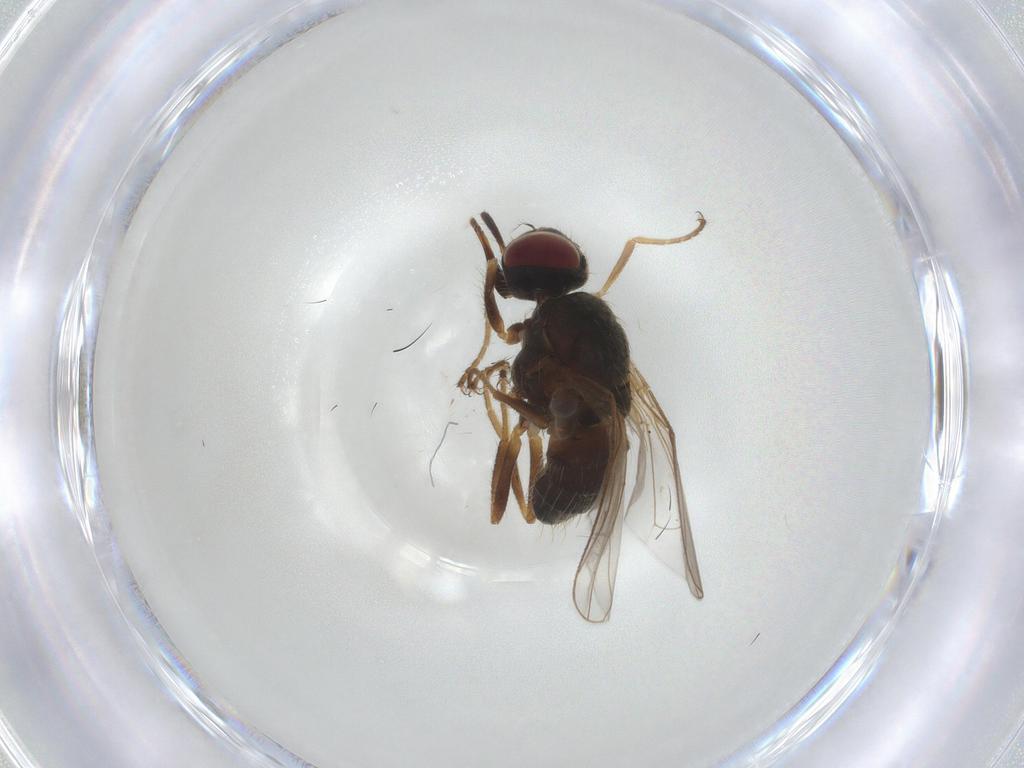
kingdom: Animalia
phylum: Arthropoda
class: Insecta
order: Diptera
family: Muscidae
